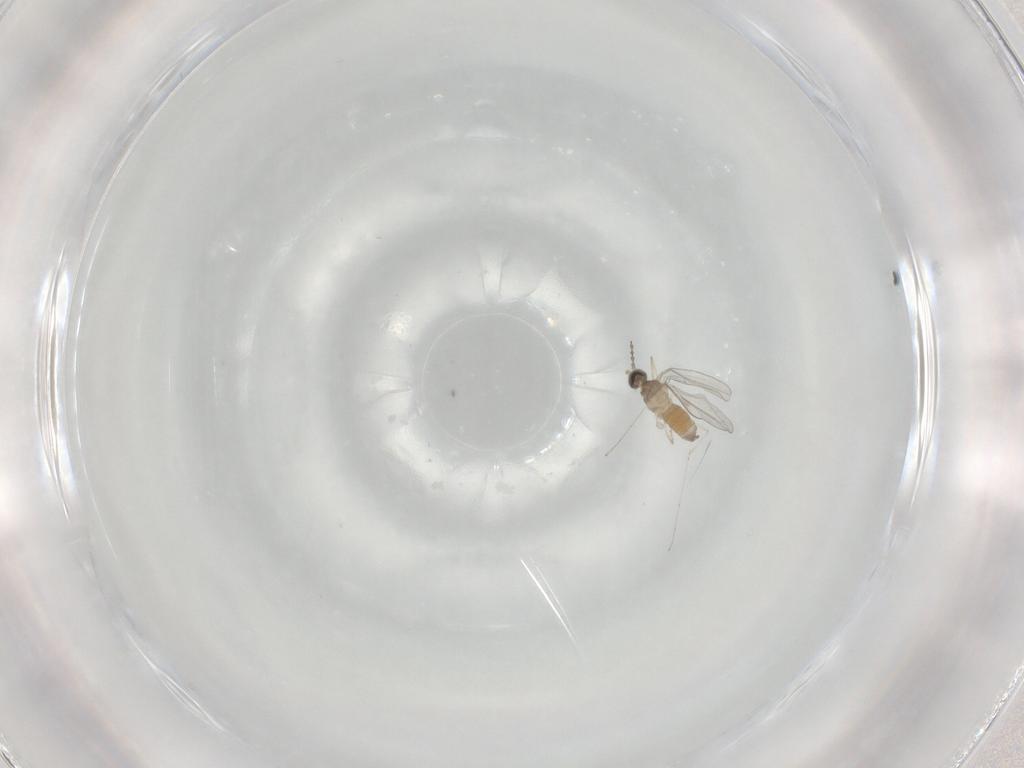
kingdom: Animalia
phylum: Arthropoda
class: Insecta
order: Diptera
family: Cecidomyiidae
